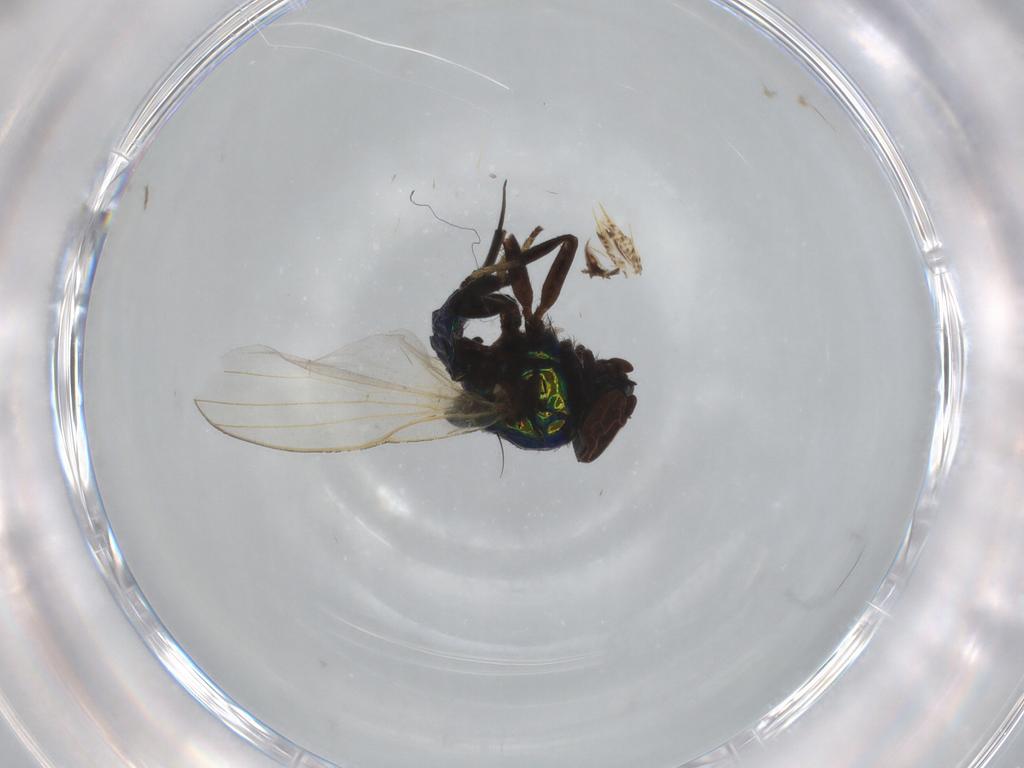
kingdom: Animalia
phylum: Arthropoda
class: Insecta
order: Diptera
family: Lonchaeidae
